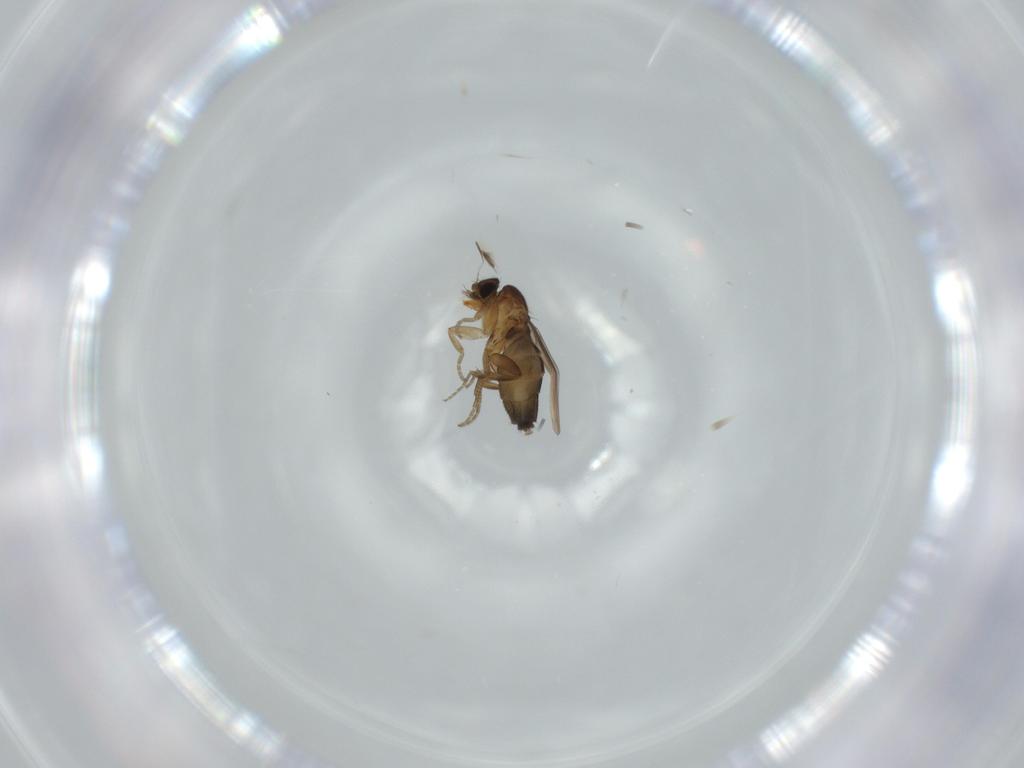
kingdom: Animalia
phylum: Arthropoda
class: Insecta
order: Diptera
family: Phoridae
